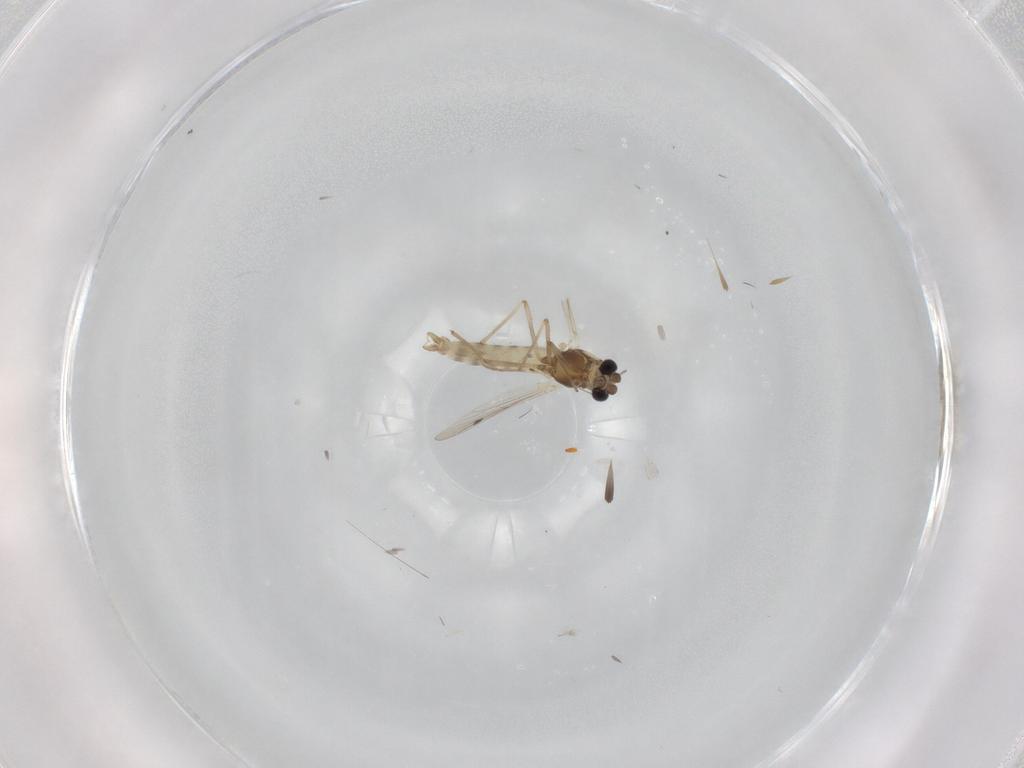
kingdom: Animalia
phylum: Arthropoda
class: Insecta
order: Diptera
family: Chironomidae
